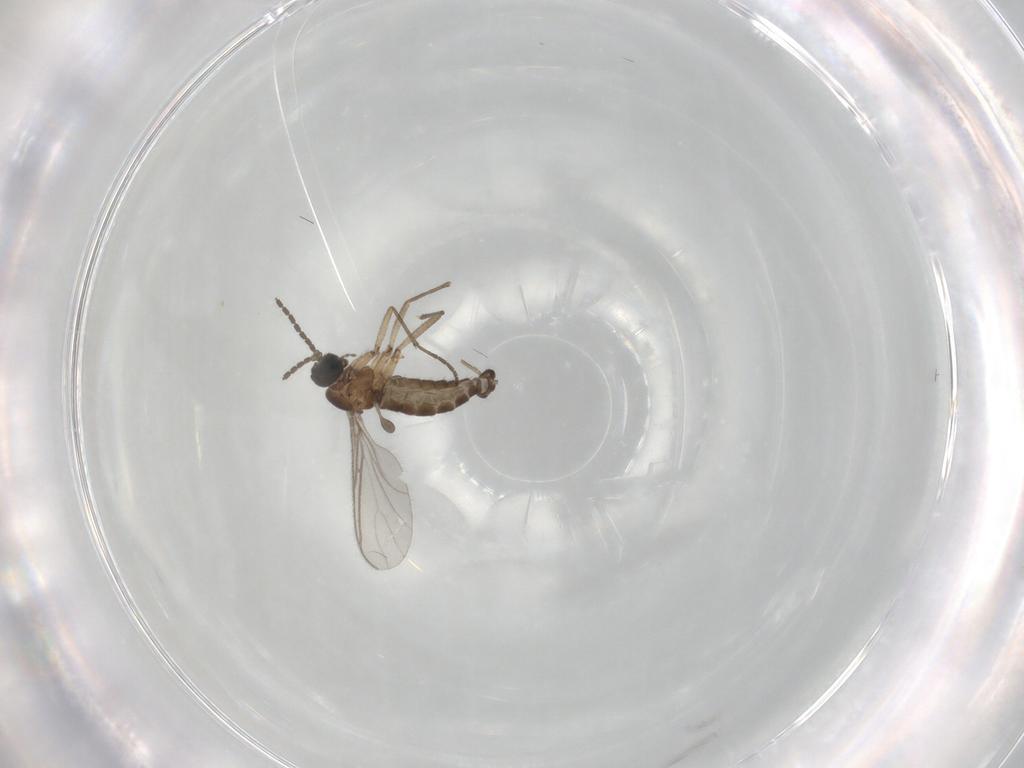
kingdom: Animalia
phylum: Arthropoda
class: Insecta
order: Diptera
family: Sciaridae
